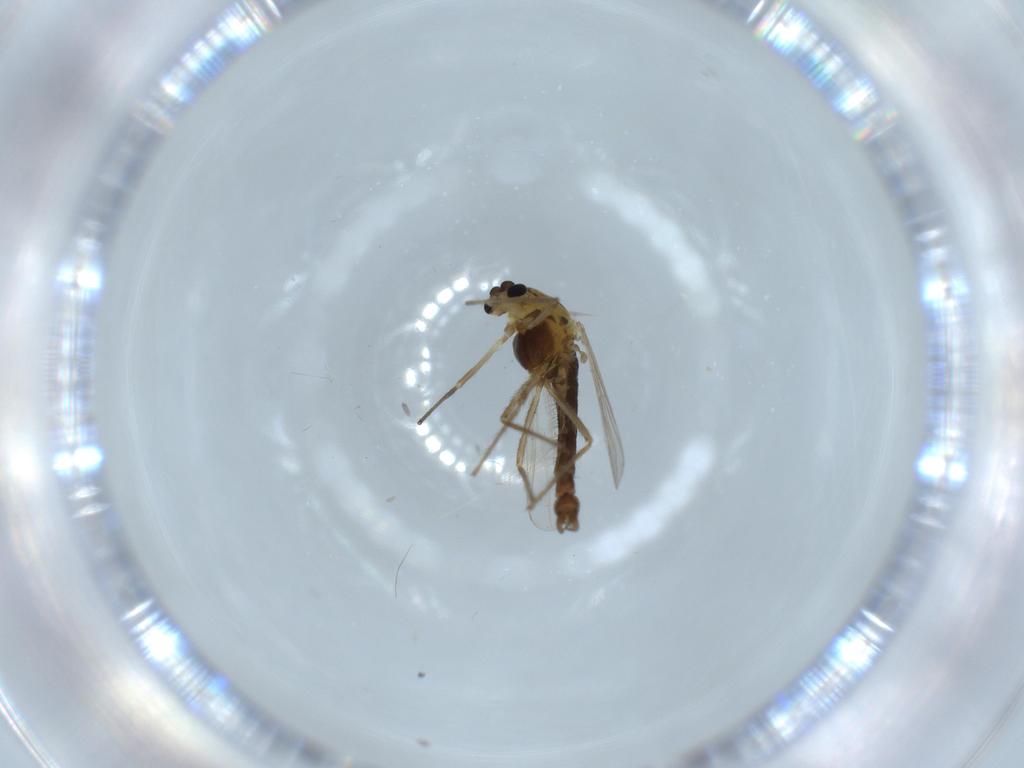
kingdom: Animalia
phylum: Arthropoda
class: Insecta
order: Diptera
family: Chironomidae
